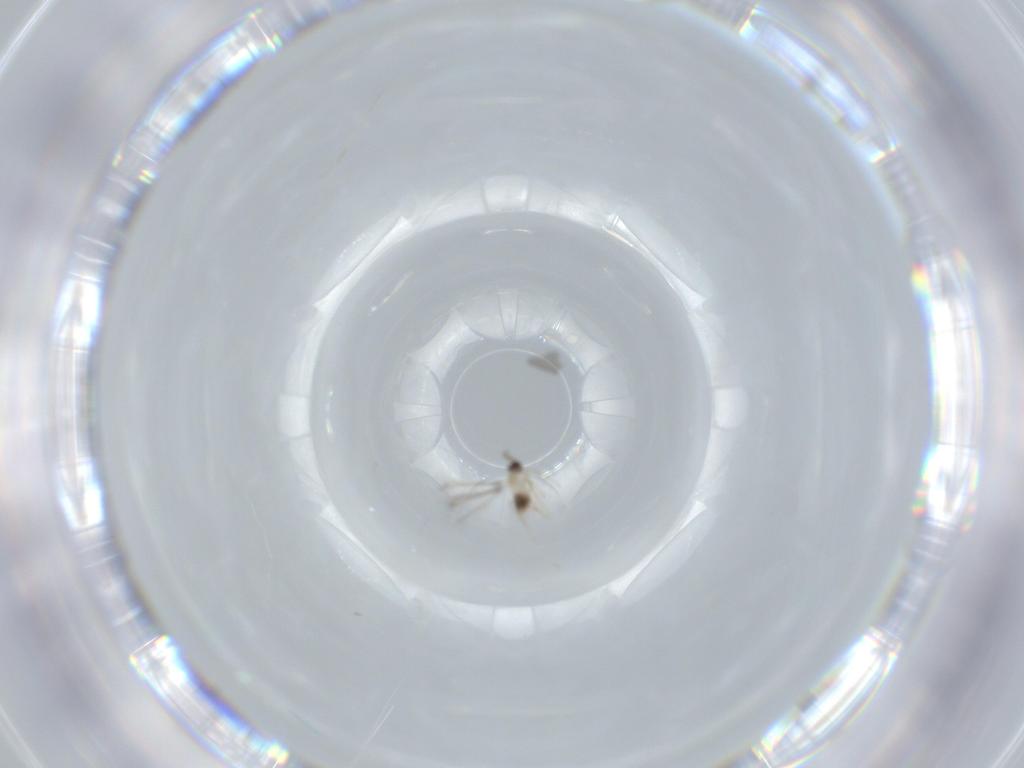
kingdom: Animalia
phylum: Arthropoda
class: Insecta
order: Hymenoptera
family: Mymaridae
